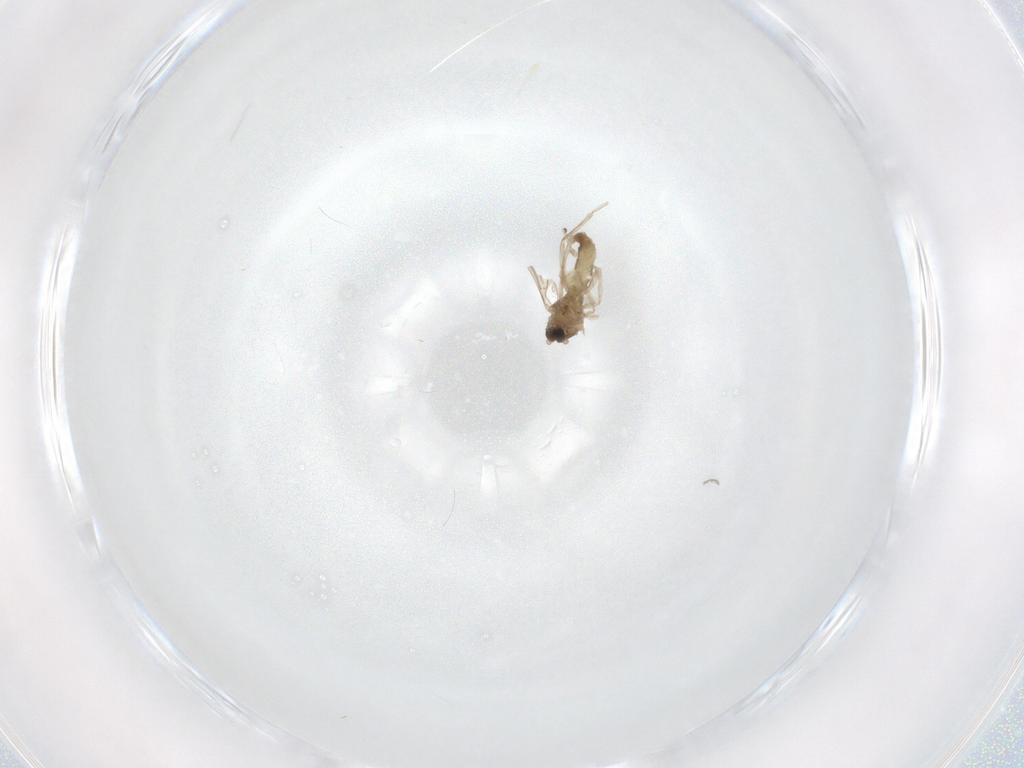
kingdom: Animalia
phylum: Arthropoda
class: Insecta
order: Diptera
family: Cecidomyiidae
